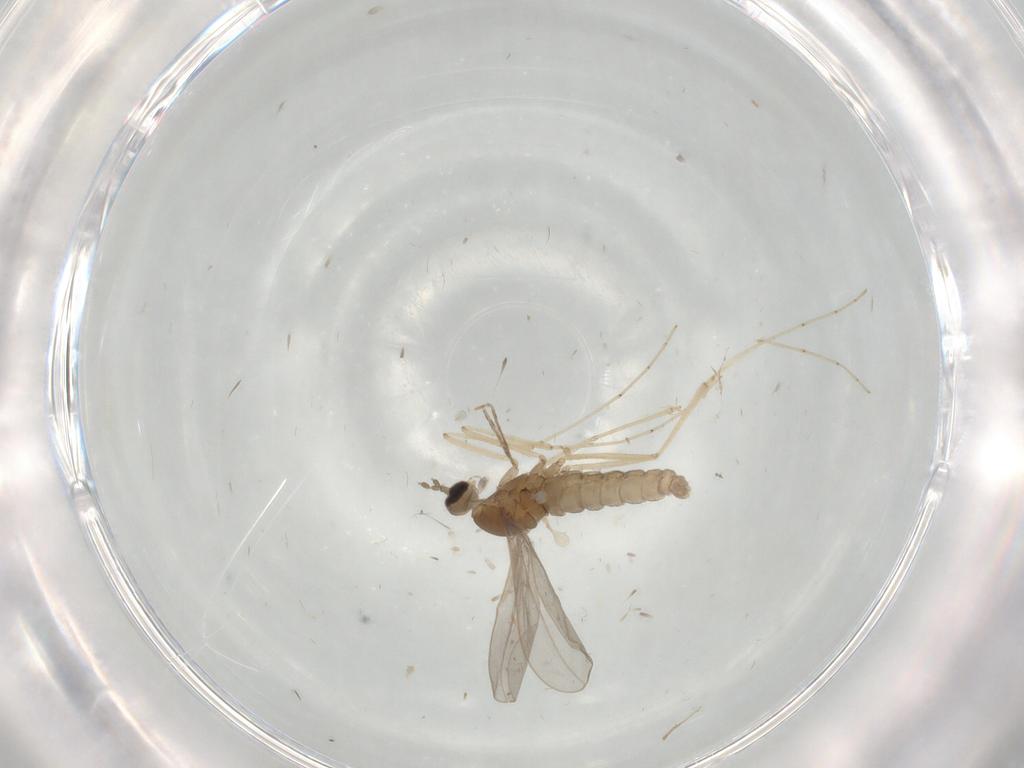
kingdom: Animalia
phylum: Arthropoda
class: Insecta
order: Diptera
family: Cecidomyiidae
